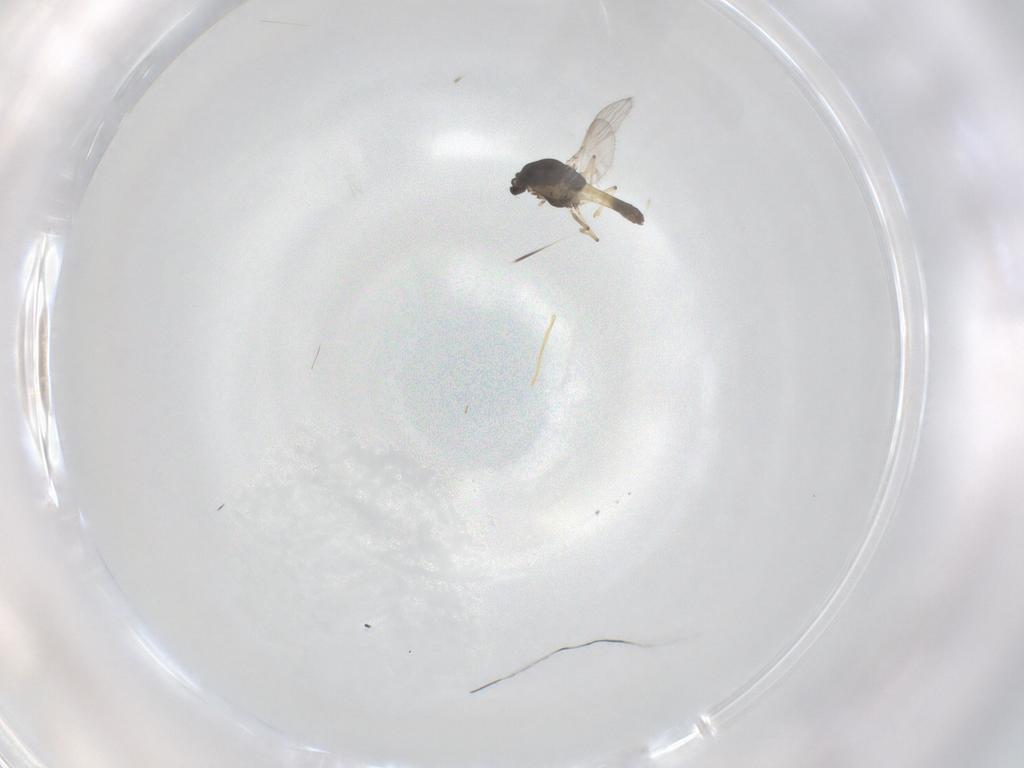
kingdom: Animalia
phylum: Arthropoda
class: Insecta
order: Diptera
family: Chironomidae
